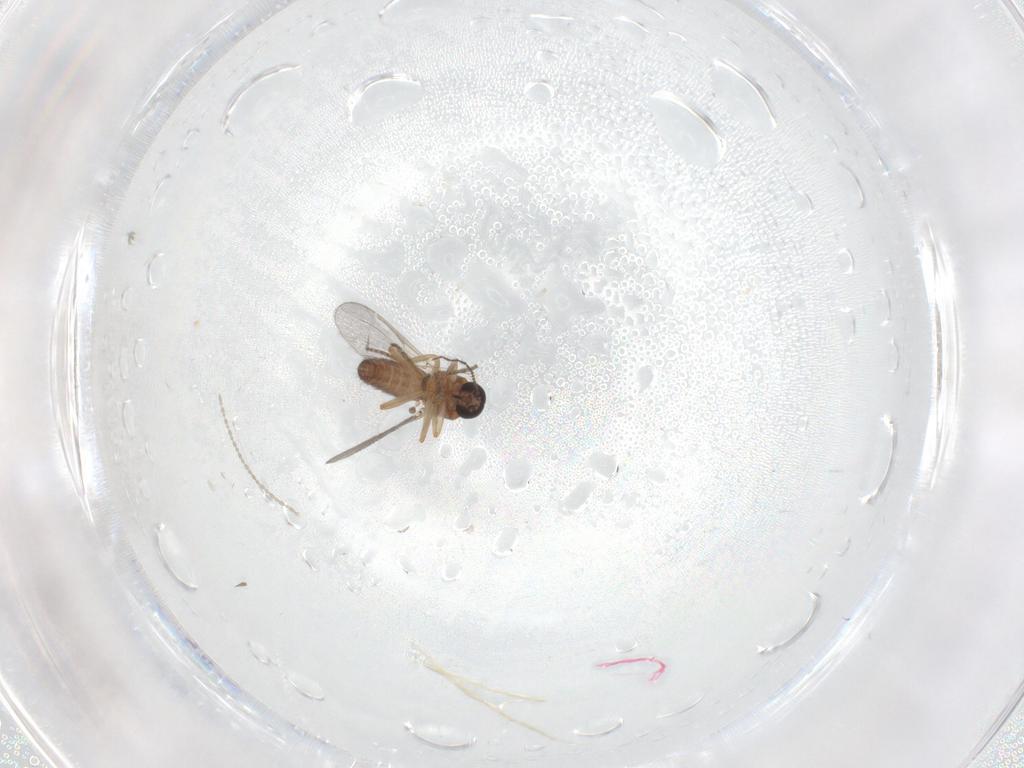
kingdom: Animalia
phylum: Arthropoda
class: Insecta
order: Diptera
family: Ceratopogonidae
